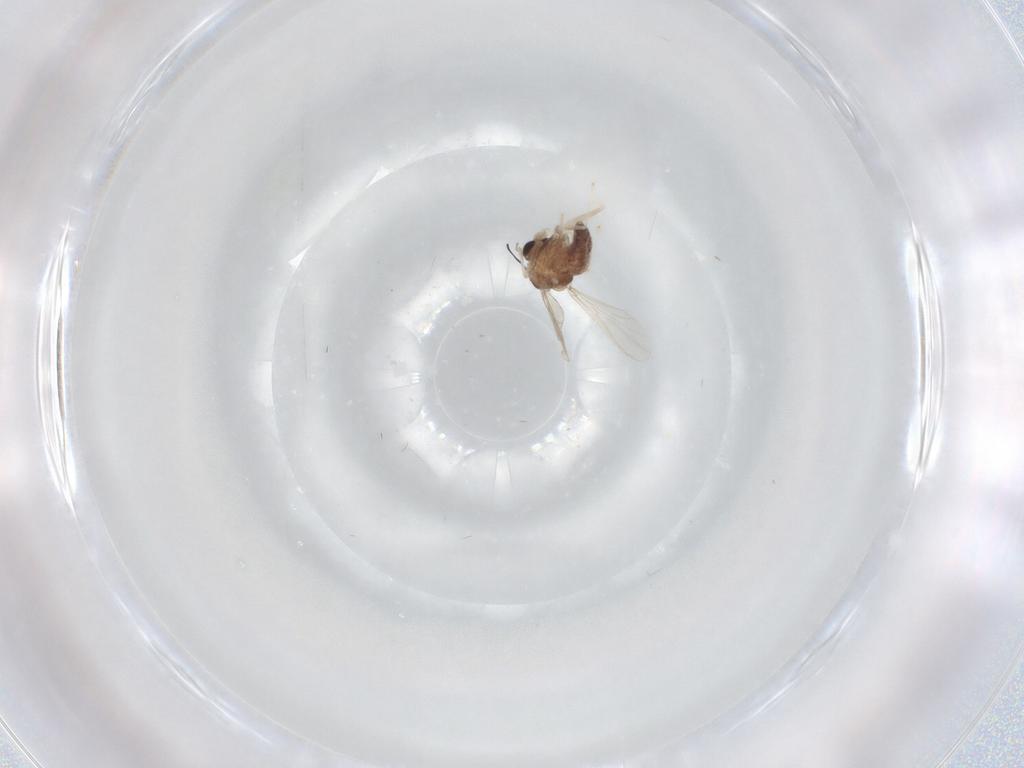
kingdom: Animalia
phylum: Arthropoda
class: Insecta
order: Diptera
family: Chironomidae
